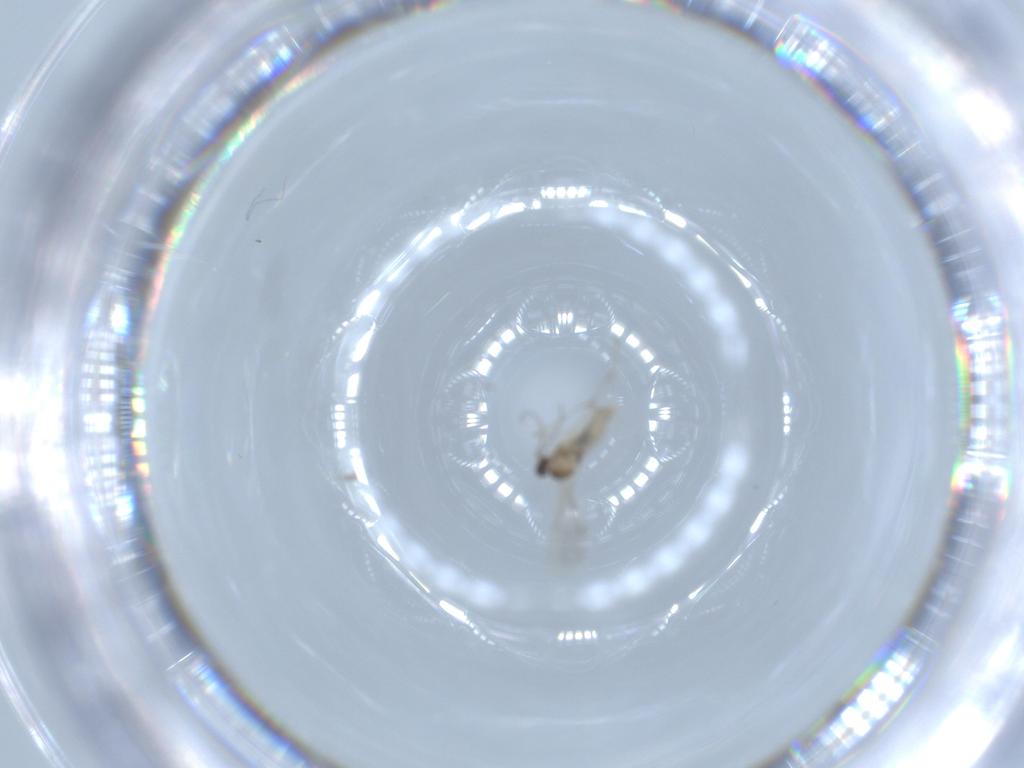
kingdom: Animalia
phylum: Arthropoda
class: Insecta
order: Diptera
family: Cecidomyiidae
